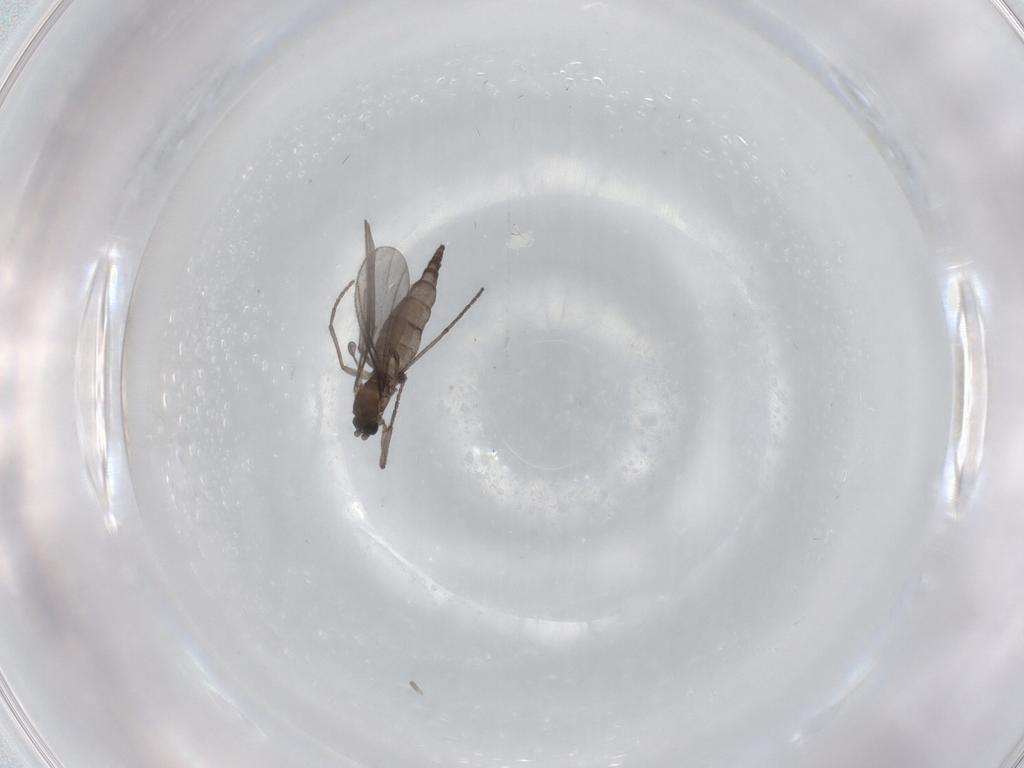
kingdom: Animalia
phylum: Arthropoda
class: Insecta
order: Diptera
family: Sciaridae
